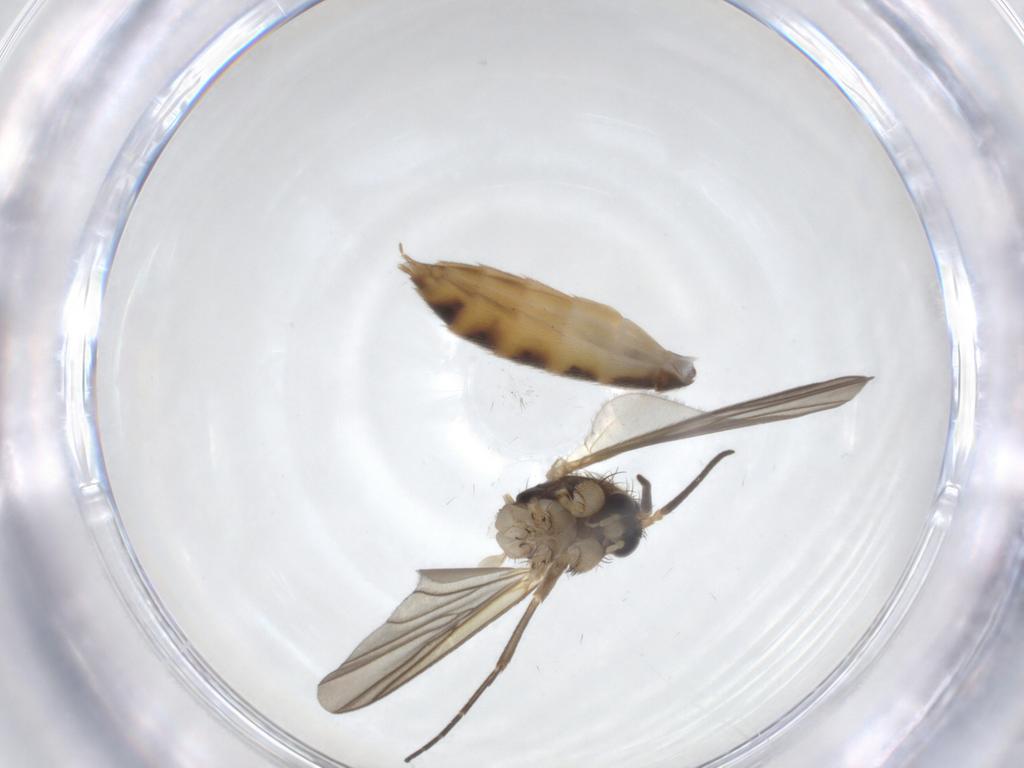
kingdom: Animalia
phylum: Arthropoda
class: Insecta
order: Diptera
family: Mycetophilidae
